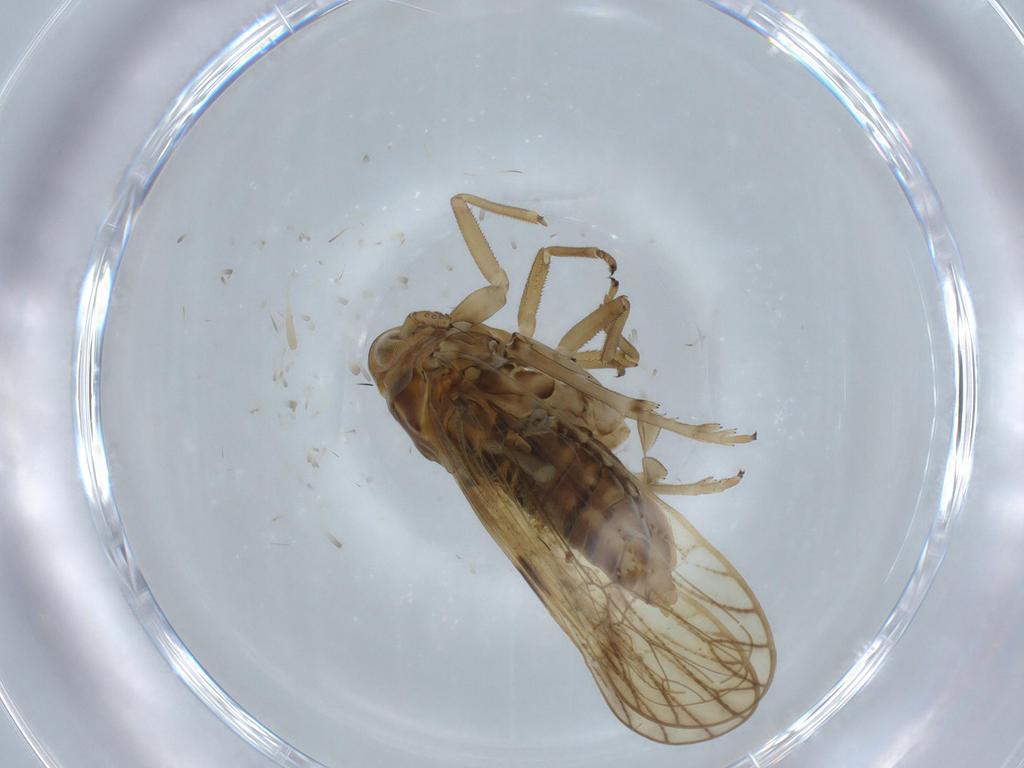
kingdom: Animalia
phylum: Arthropoda
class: Insecta
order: Hemiptera
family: Delphacidae
